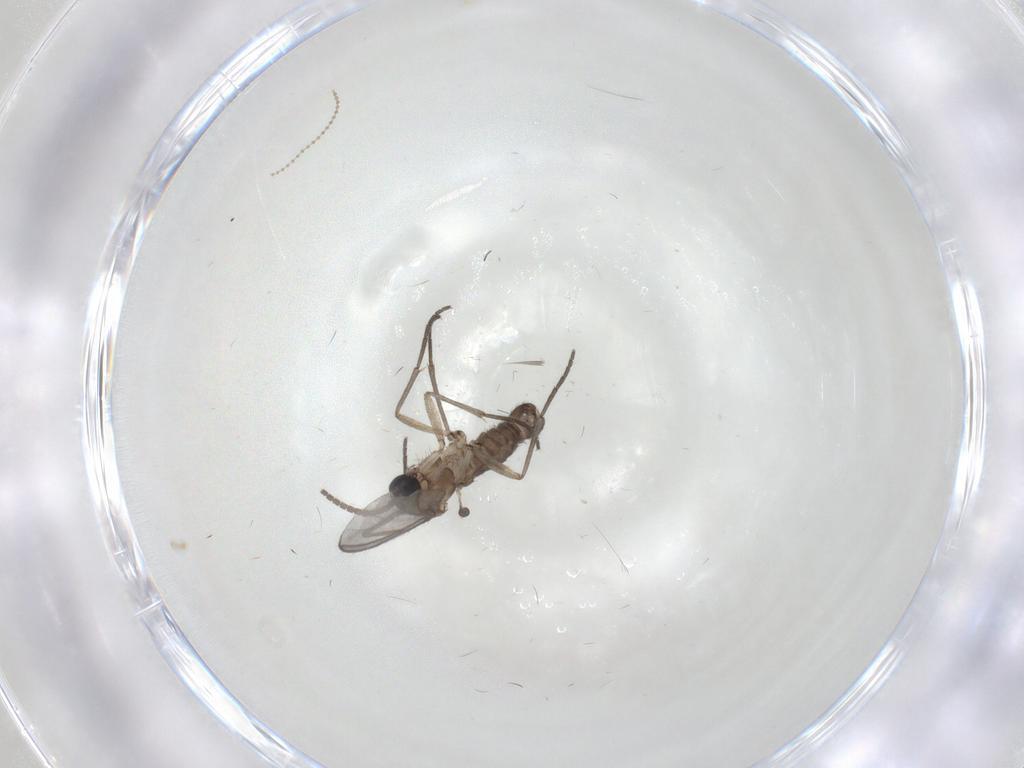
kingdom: Animalia
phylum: Arthropoda
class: Insecta
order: Diptera
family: Cecidomyiidae
